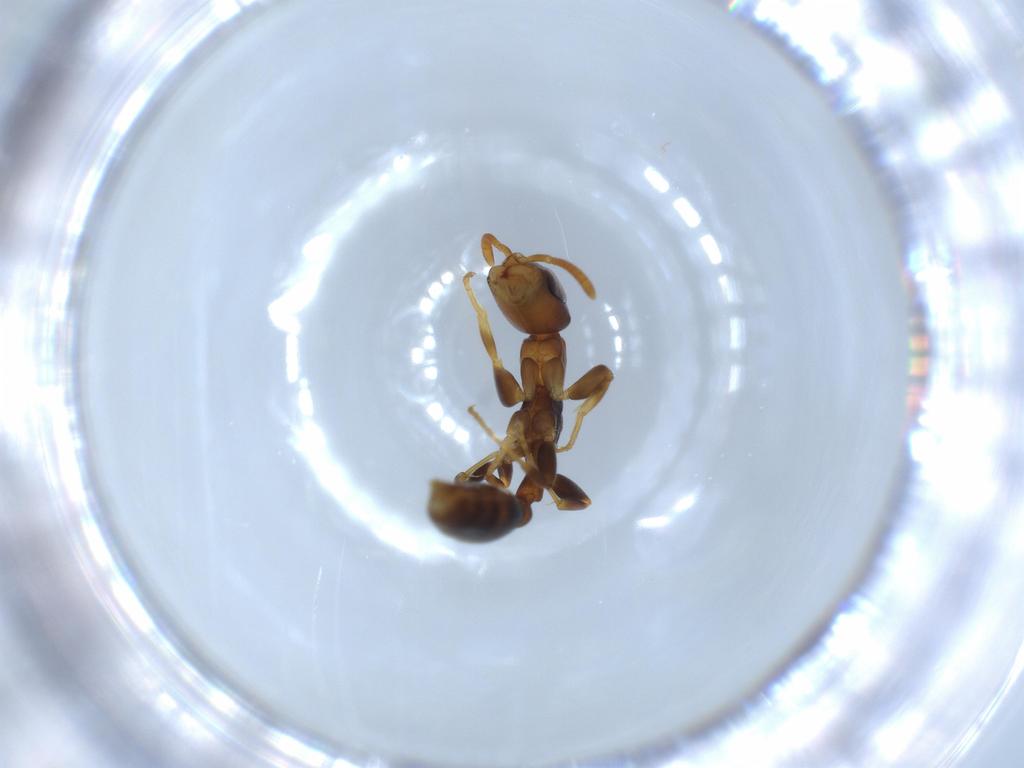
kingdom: Animalia
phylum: Arthropoda
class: Insecta
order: Hymenoptera
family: Formicidae
